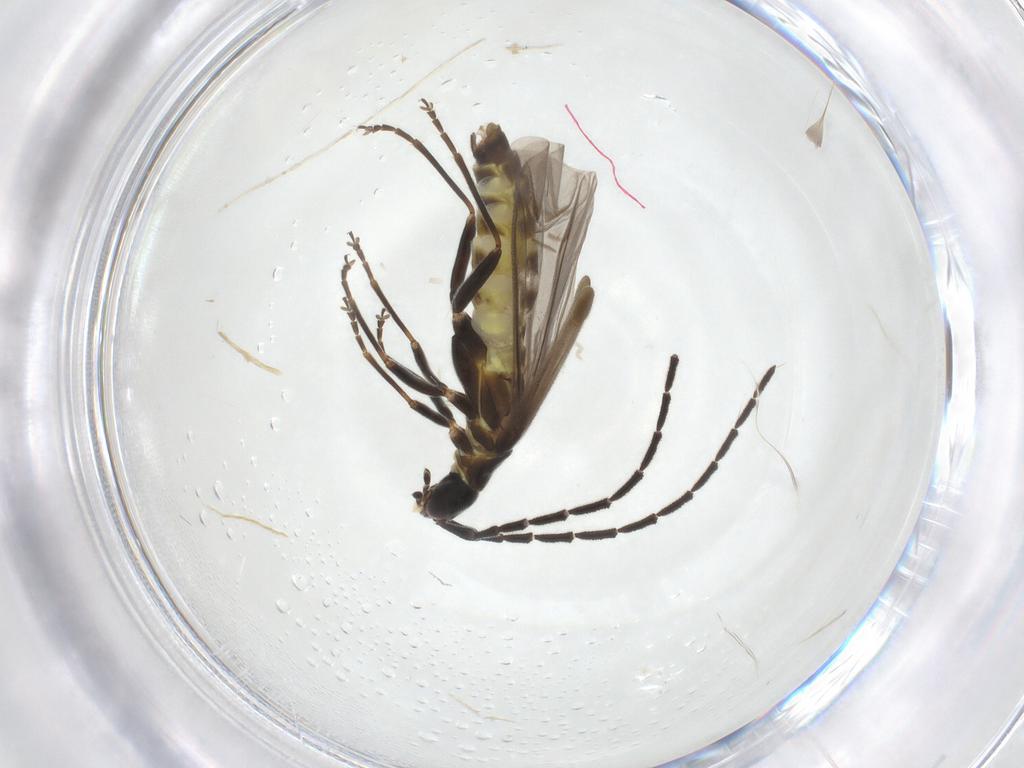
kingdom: Animalia
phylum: Arthropoda
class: Insecta
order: Coleoptera
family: Cantharidae
